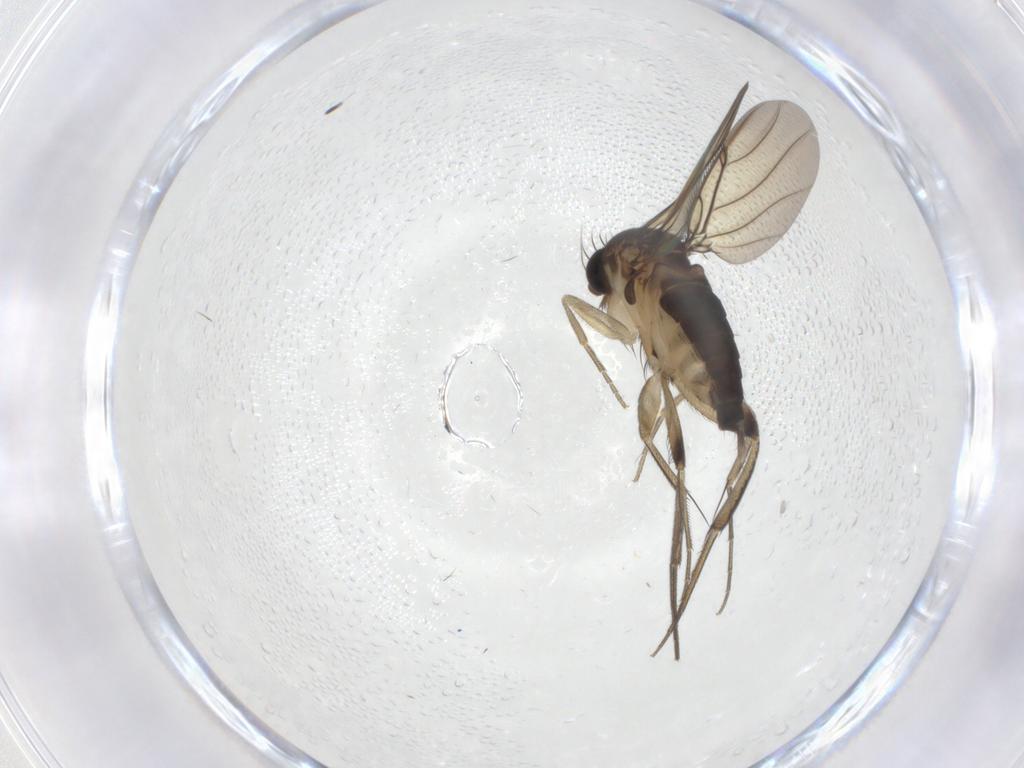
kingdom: Animalia
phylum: Arthropoda
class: Insecta
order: Diptera
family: Phoridae
